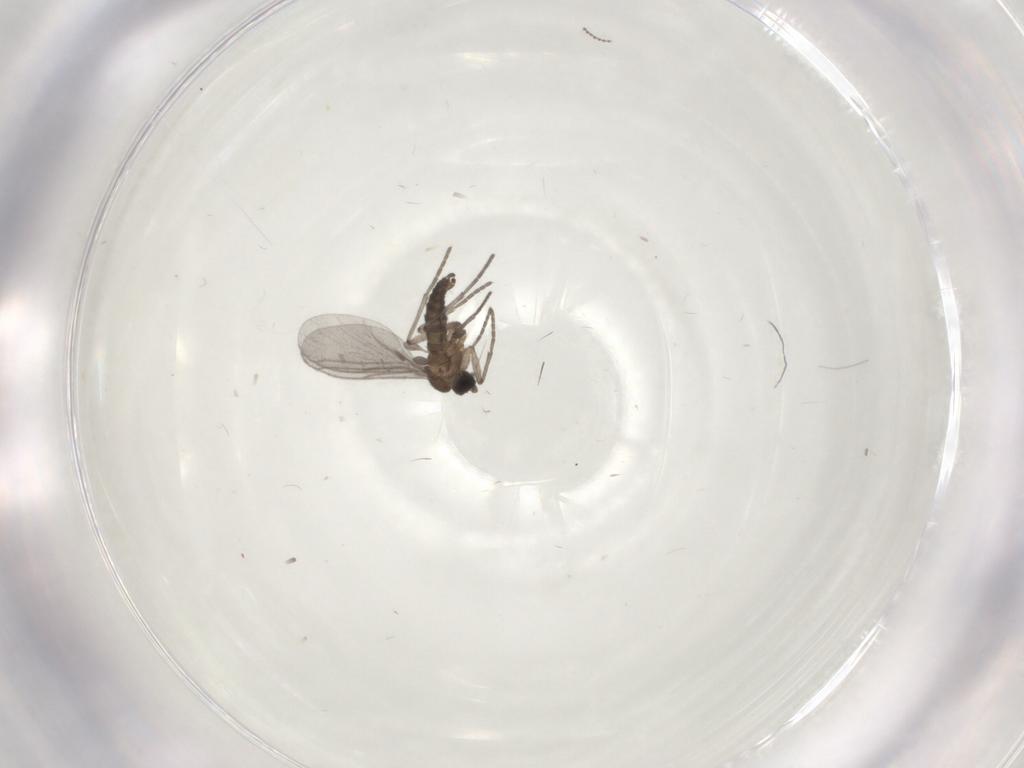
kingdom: Animalia
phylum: Arthropoda
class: Insecta
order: Diptera
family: Sciaridae
